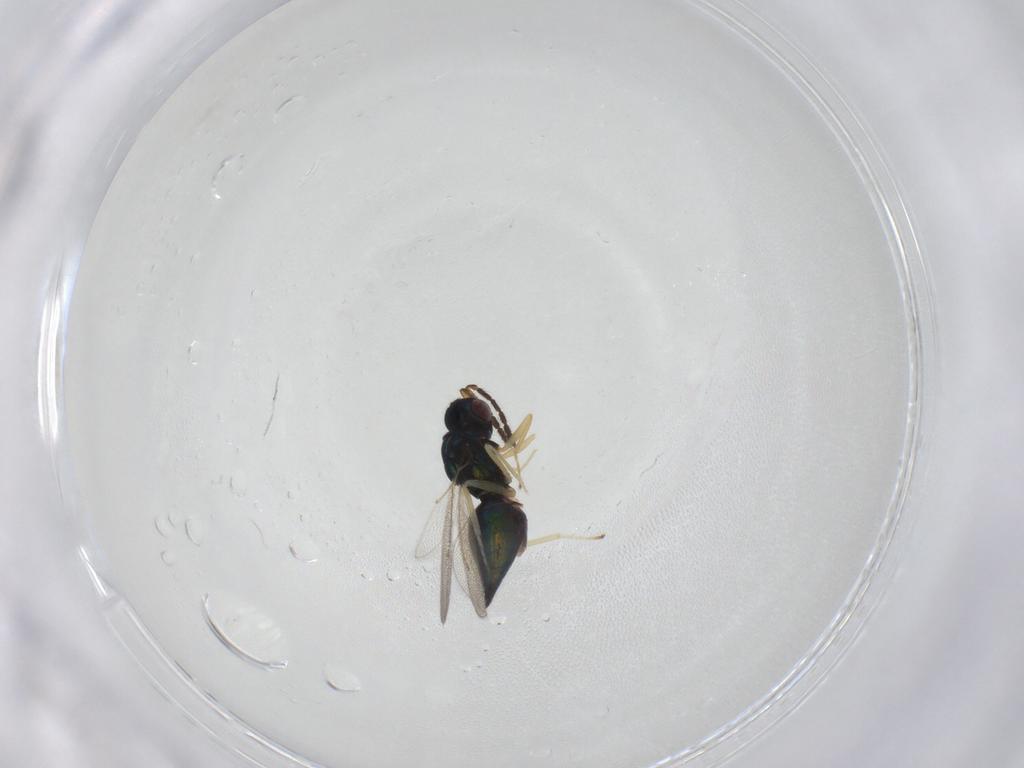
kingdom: Animalia
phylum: Arthropoda
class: Insecta
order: Hymenoptera
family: Eulophidae
